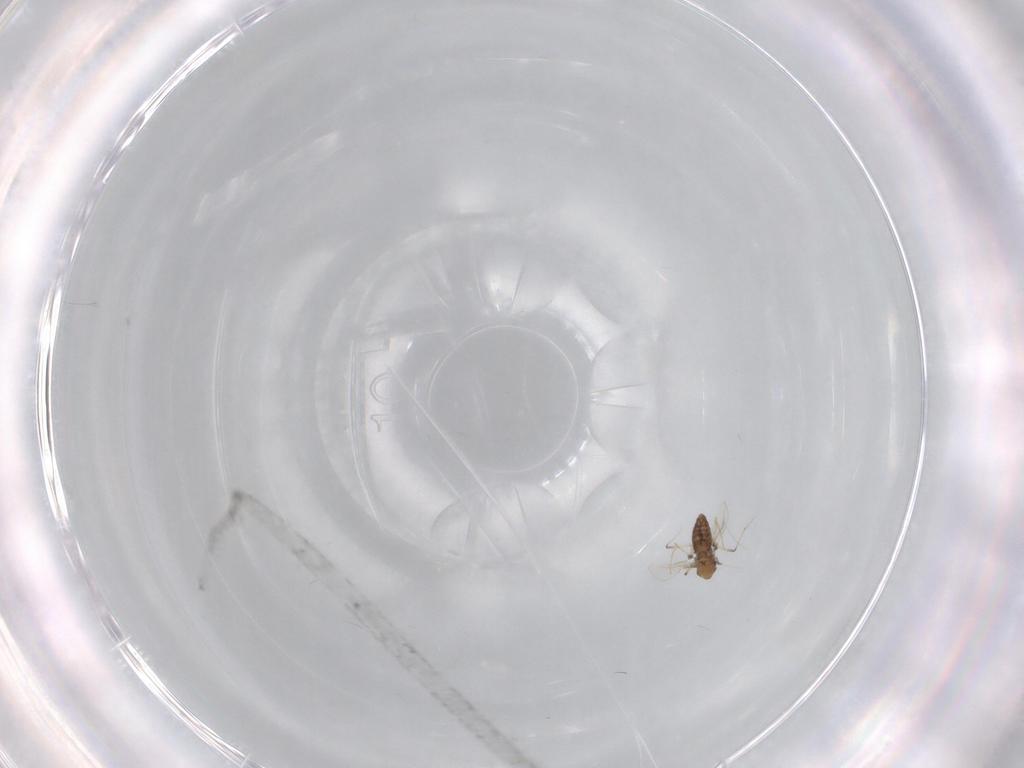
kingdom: Animalia
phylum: Arthropoda
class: Insecta
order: Diptera
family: Chironomidae
